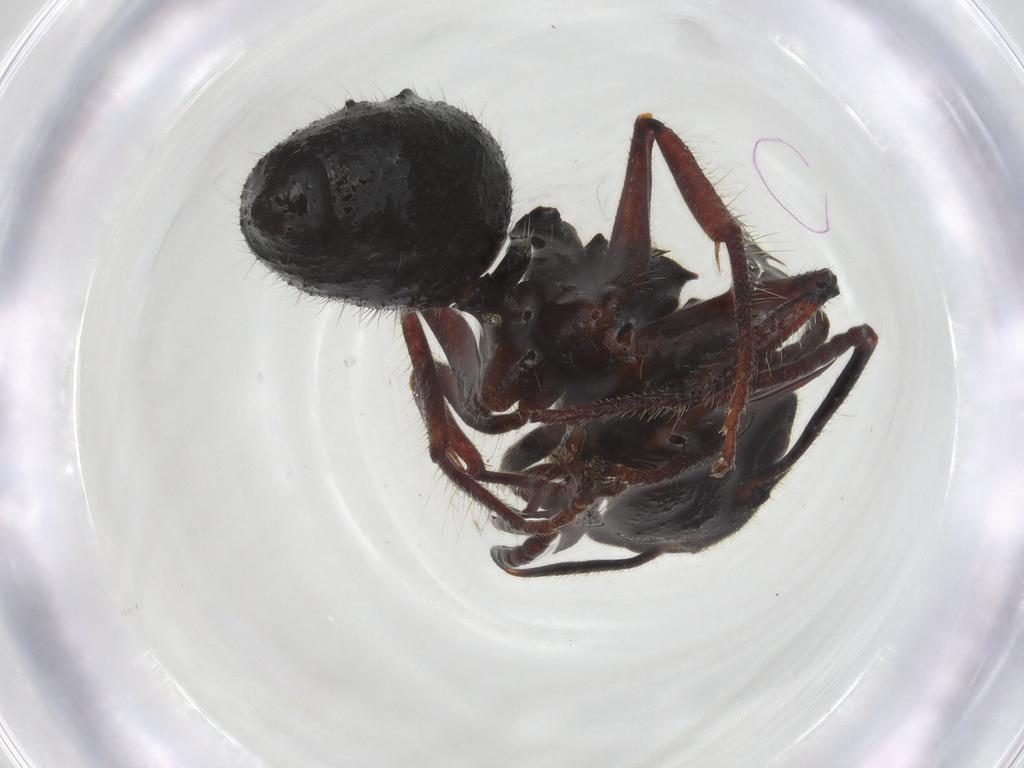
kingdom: Animalia
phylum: Arthropoda
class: Insecta
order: Hymenoptera
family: Formicidae
